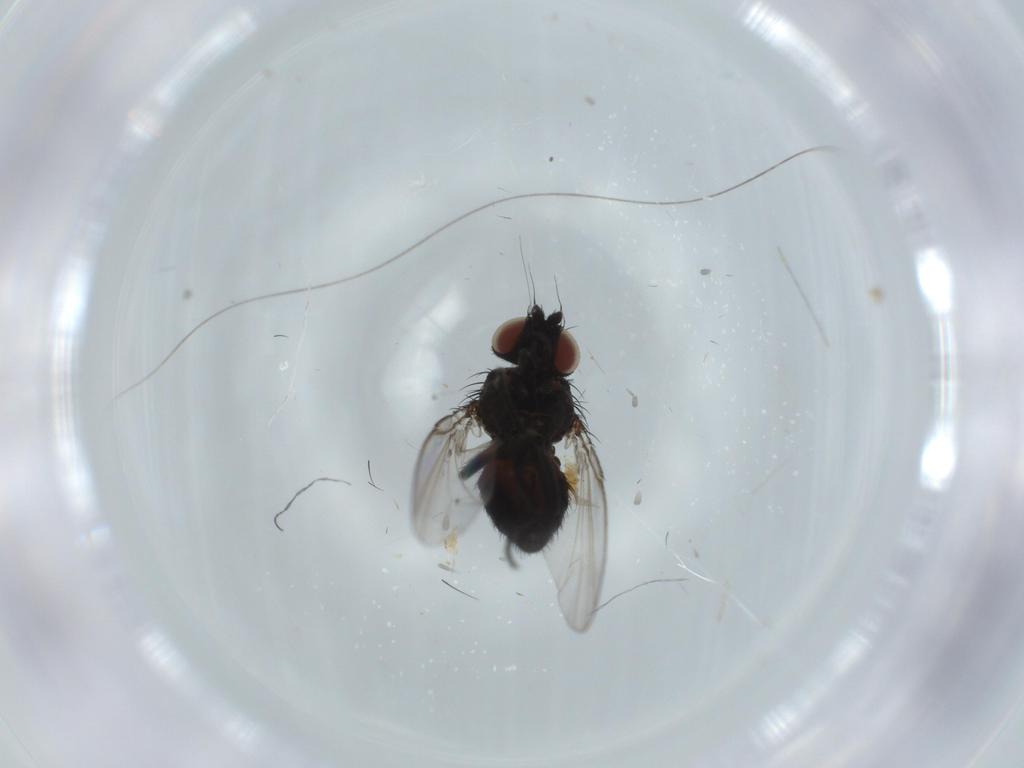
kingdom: Animalia
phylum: Arthropoda
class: Insecta
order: Diptera
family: Milichiidae
